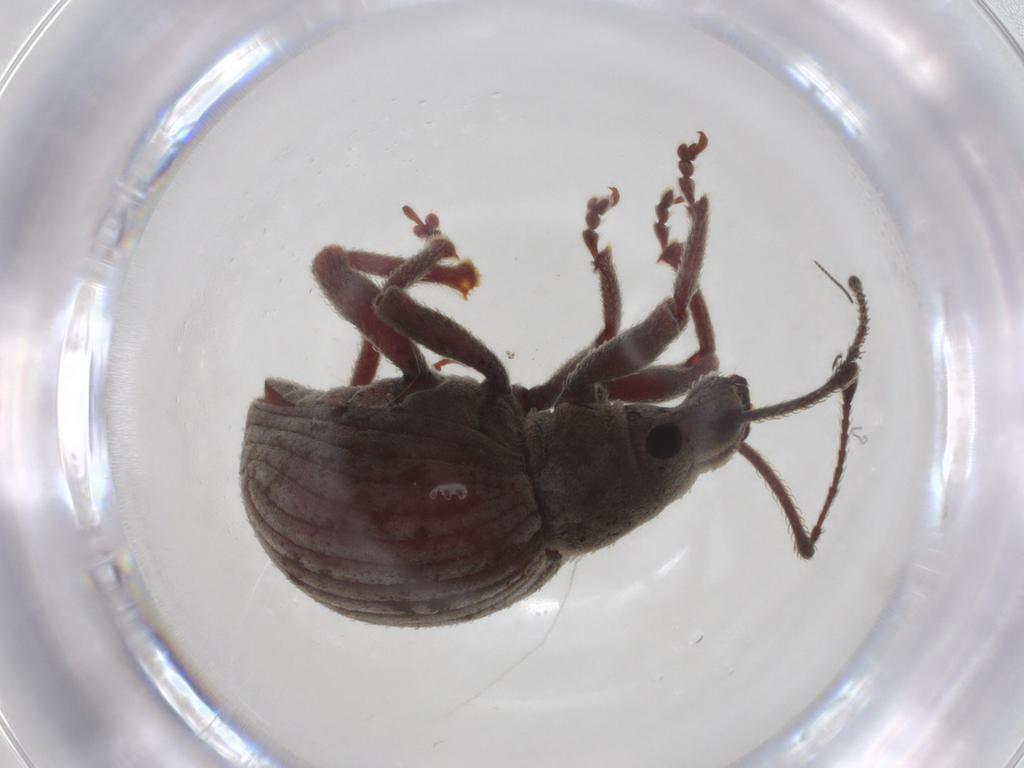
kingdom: Animalia
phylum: Arthropoda
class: Insecta
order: Coleoptera
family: Curculionidae
